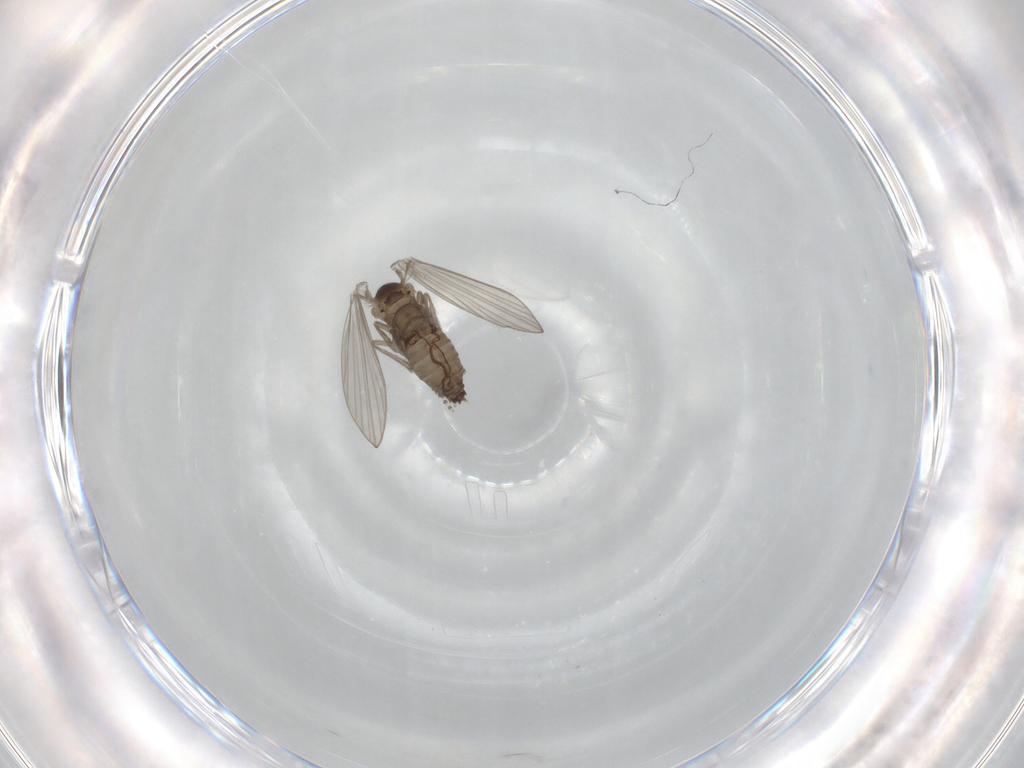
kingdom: Animalia
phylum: Arthropoda
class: Insecta
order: Diptera
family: Psychodidae
